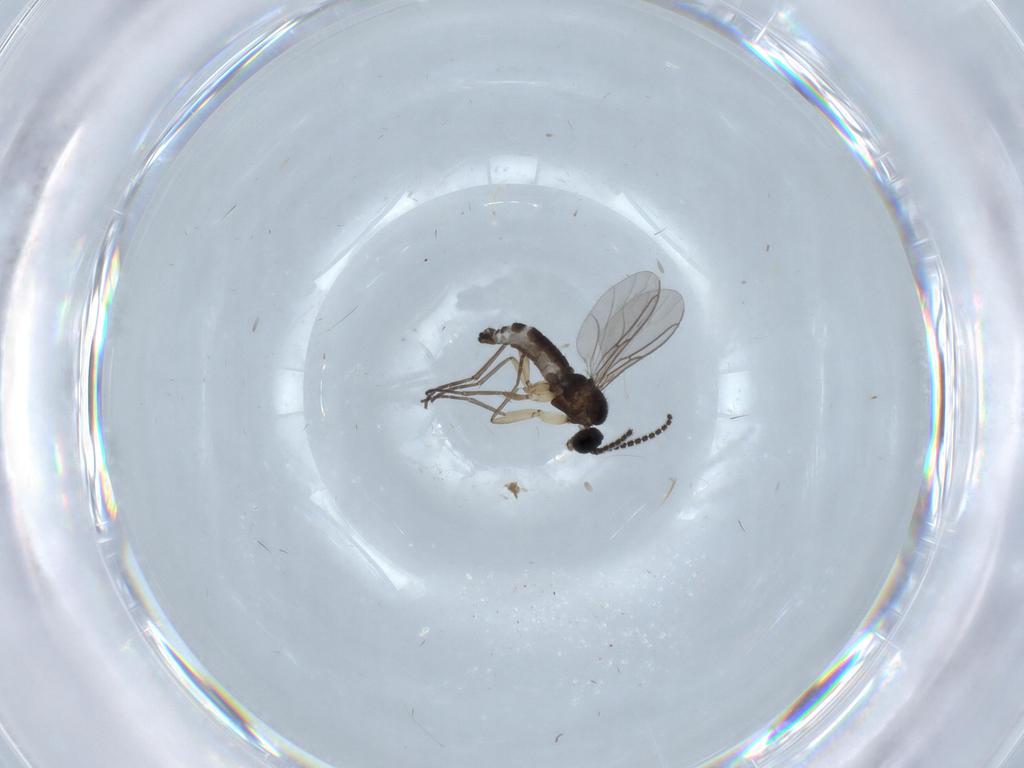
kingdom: Animalia
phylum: Arthropoda
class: Insecta
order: Diptera
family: Sciaridae
